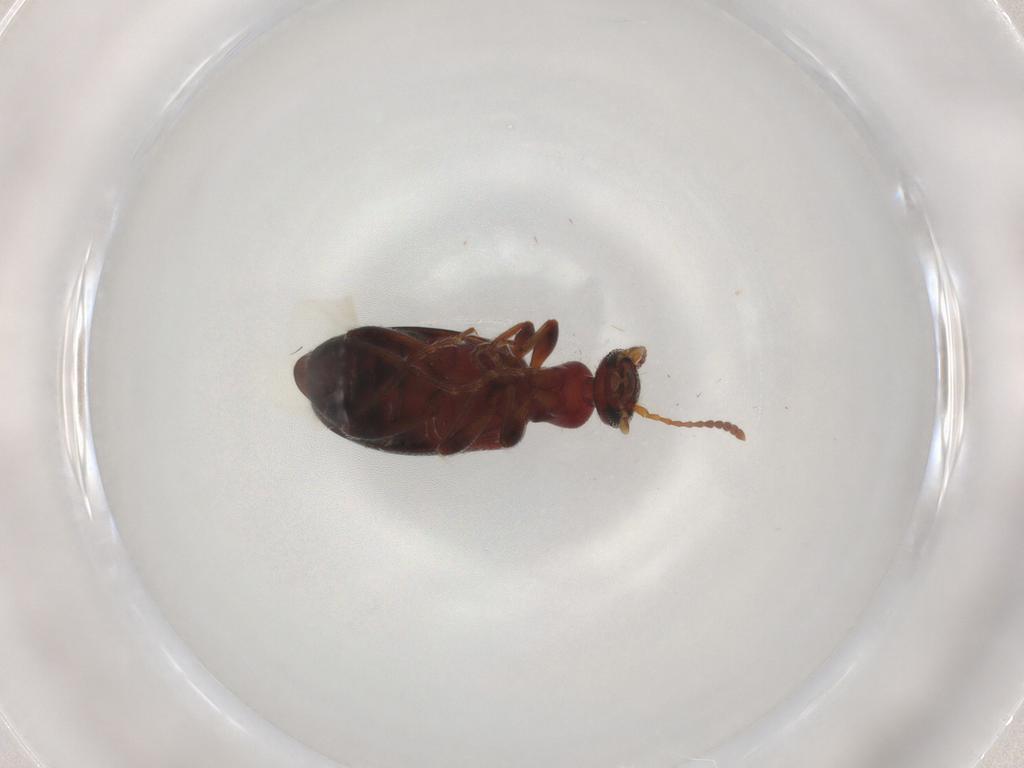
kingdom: Animalia
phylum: Arthropoda
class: Insecta
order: Coleoptera
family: Anthicidae
